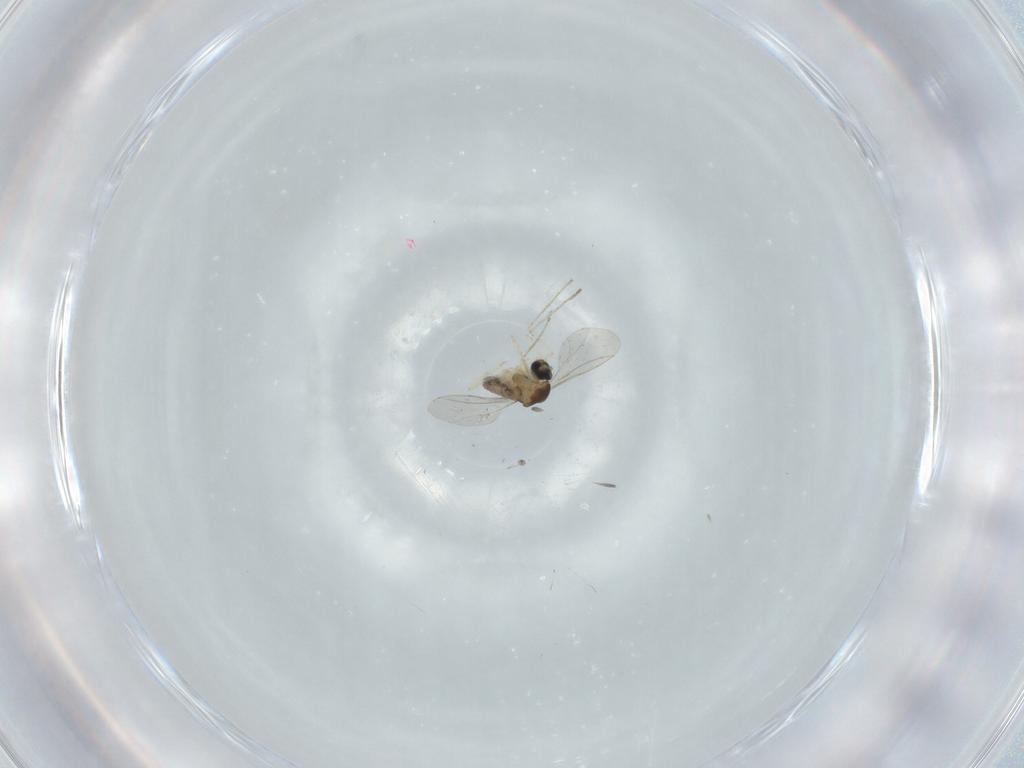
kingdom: Animalia
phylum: Arthropoda
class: Insecta
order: Diptera
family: Cecidomyiidae
